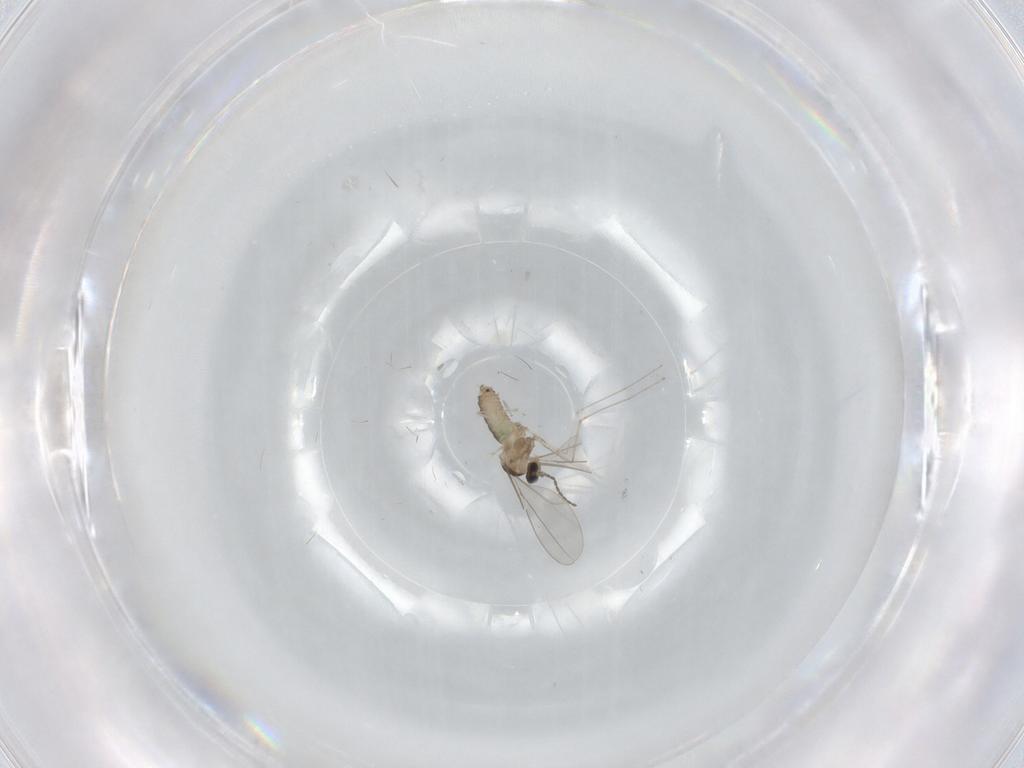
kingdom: Animalia
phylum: Arthropoda
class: Insecta
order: Diptera
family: Cecidomyiidae
